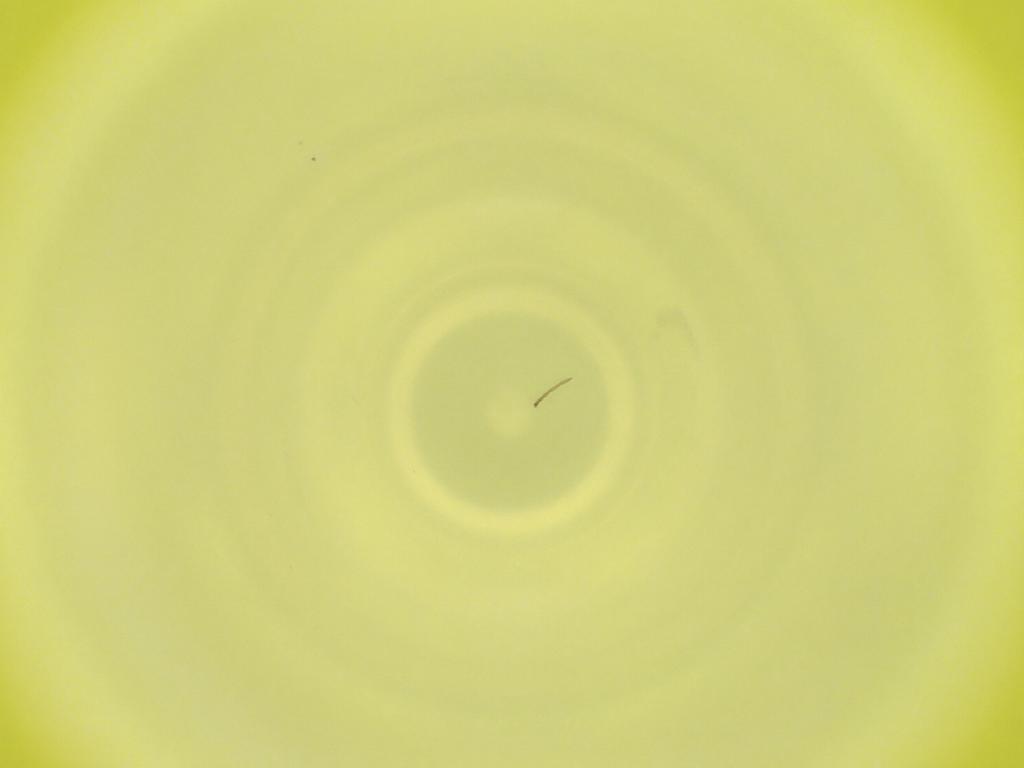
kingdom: Animalia
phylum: Arthropoda
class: Insecta
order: Diptera
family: Cecidomyiidae
